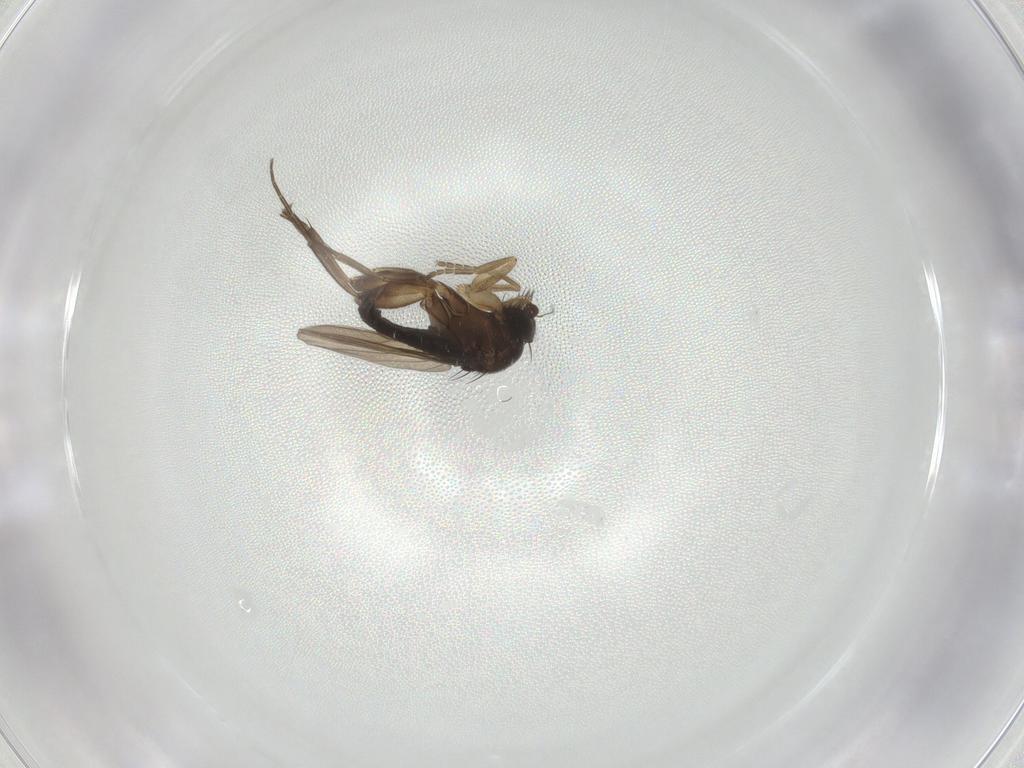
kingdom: Animalia
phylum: Arthropoda
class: Insecta
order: Diptera
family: Phoridae
